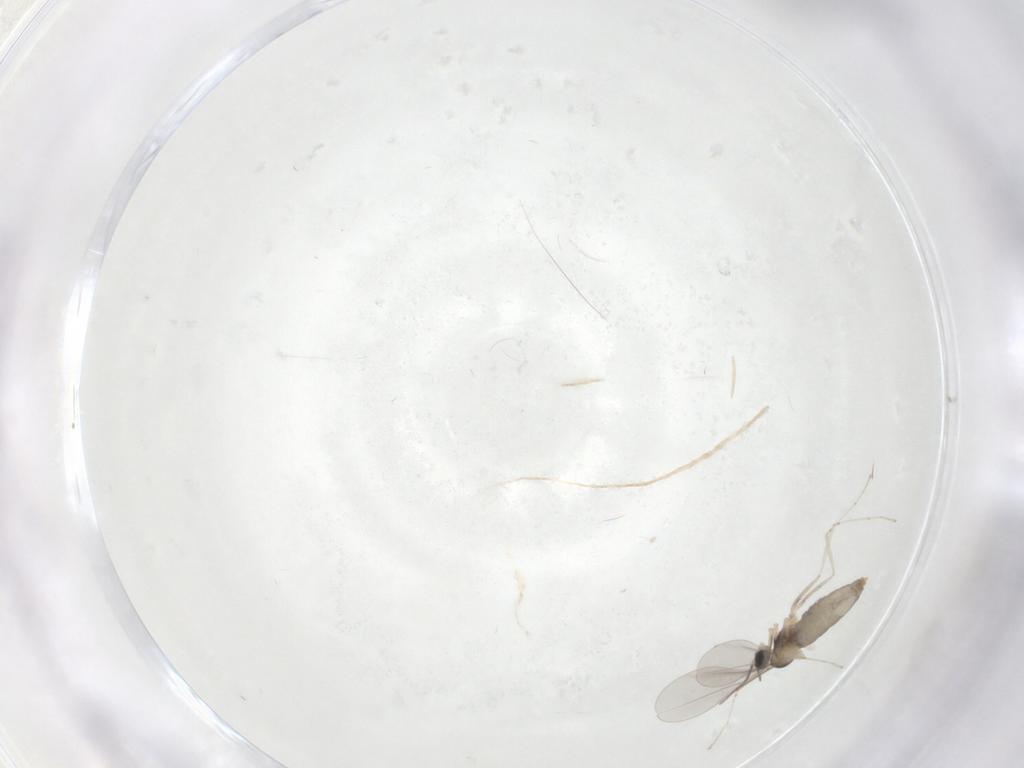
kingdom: Animalia
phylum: Arthropoda
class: Insecta
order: Diptera
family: Cecidomyiidae
